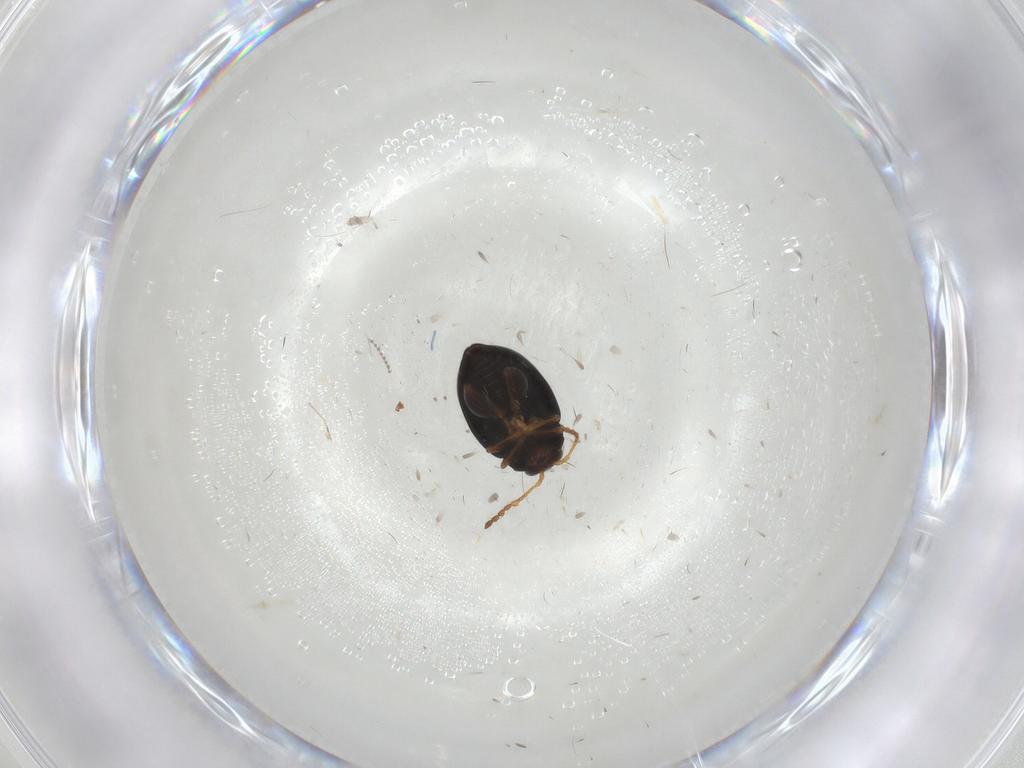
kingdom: Animalia
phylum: Arthropoda
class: Insecta
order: Coleoptera
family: Chrysomelidae
